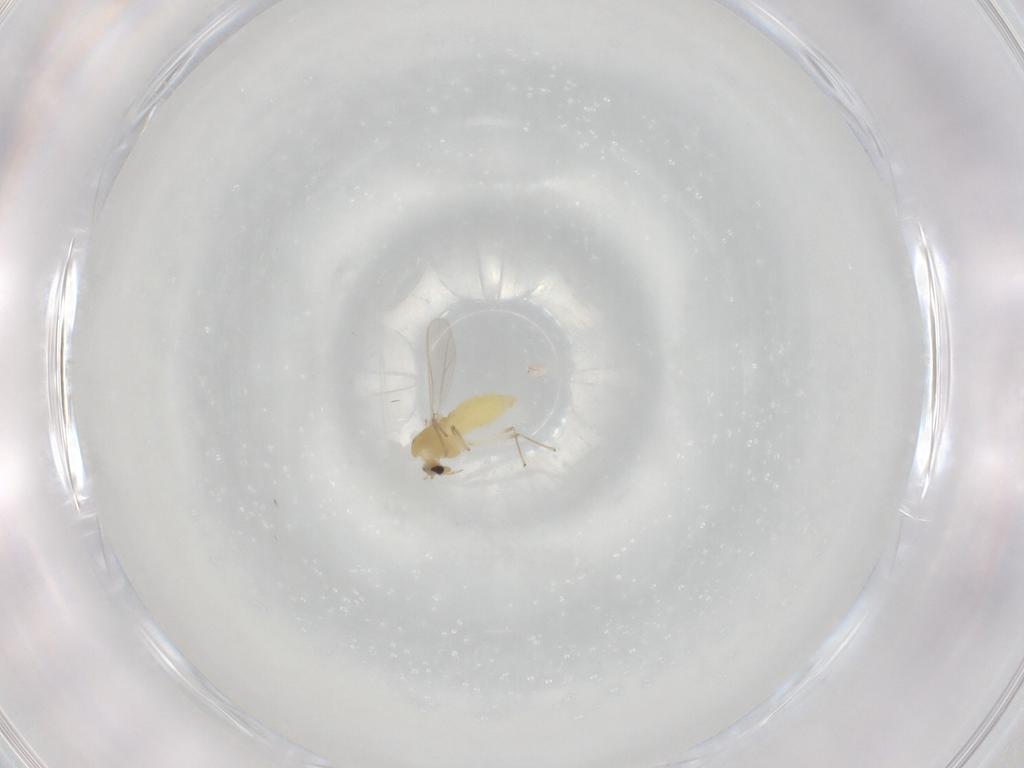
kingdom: Animalia
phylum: Arthropoda
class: Insecta
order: Diptera
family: Chironomidae
